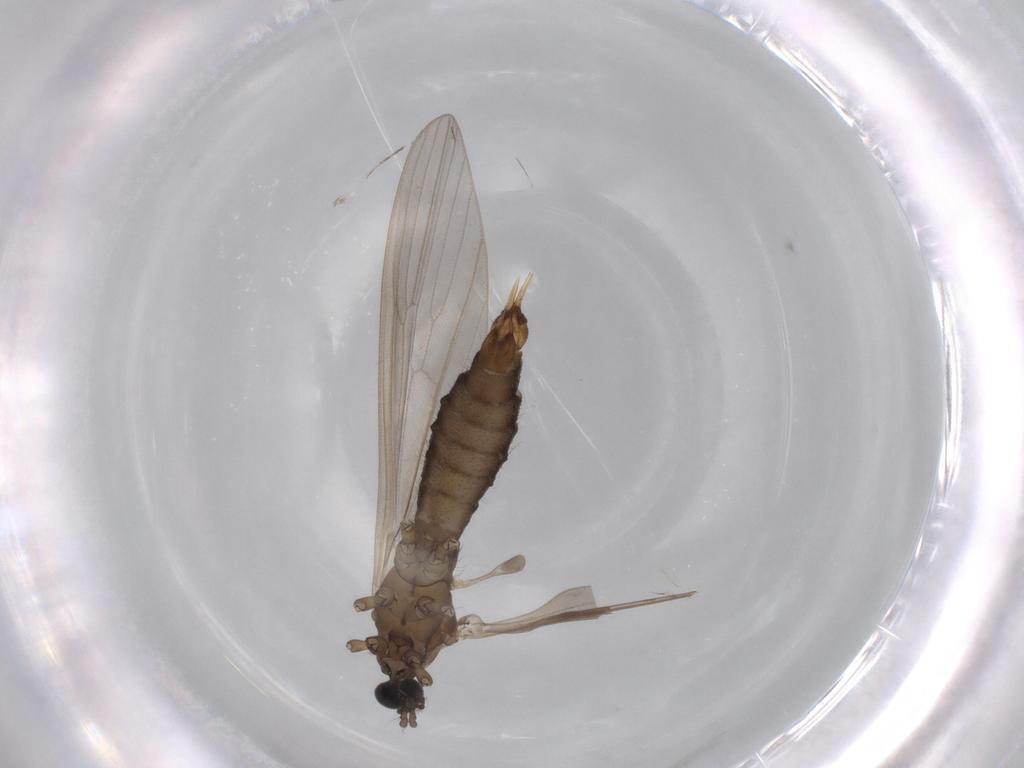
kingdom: Animalia
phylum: Arthropoda
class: Insecta
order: Diptera
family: Limoniidae
